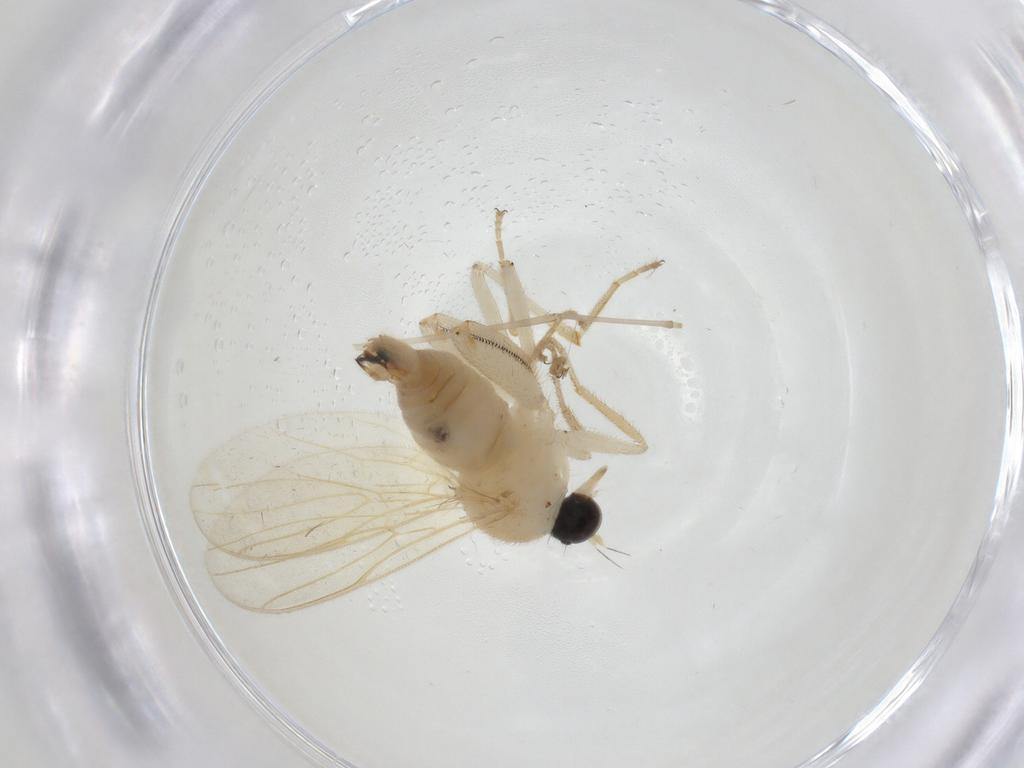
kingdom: Animalia
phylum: Arthropoda
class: Insecta
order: Diptera
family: Hybotidae
